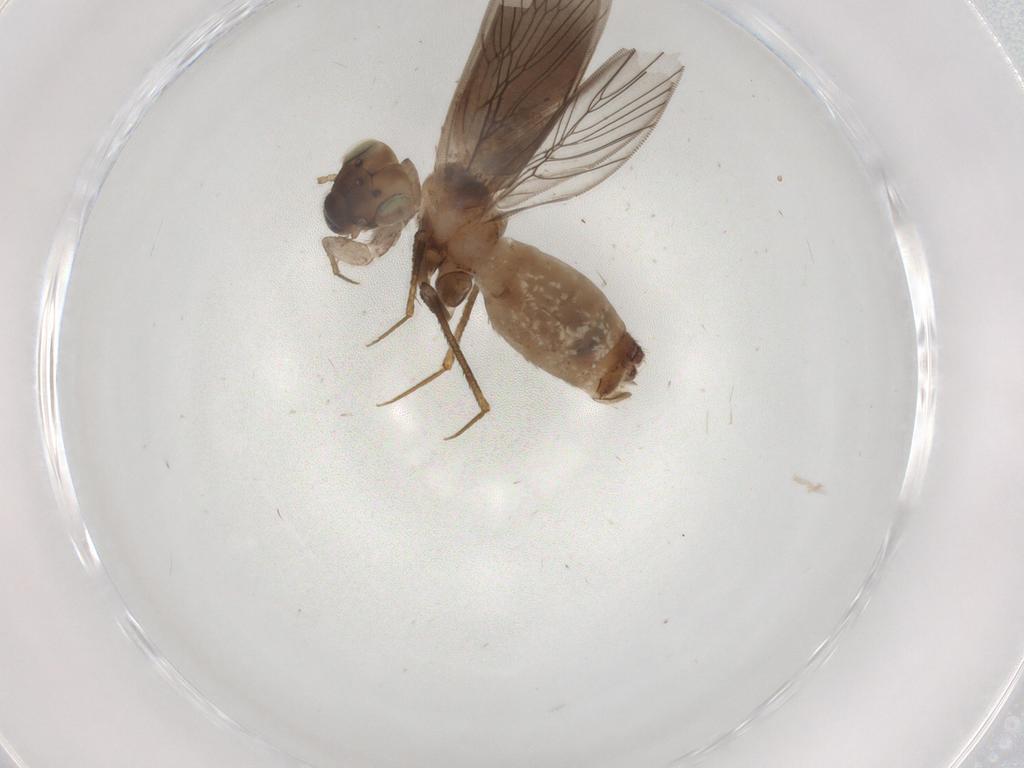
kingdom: Animalia
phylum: Arthropoda
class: Insecta
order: Psocodea
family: Lepidopsocidae
